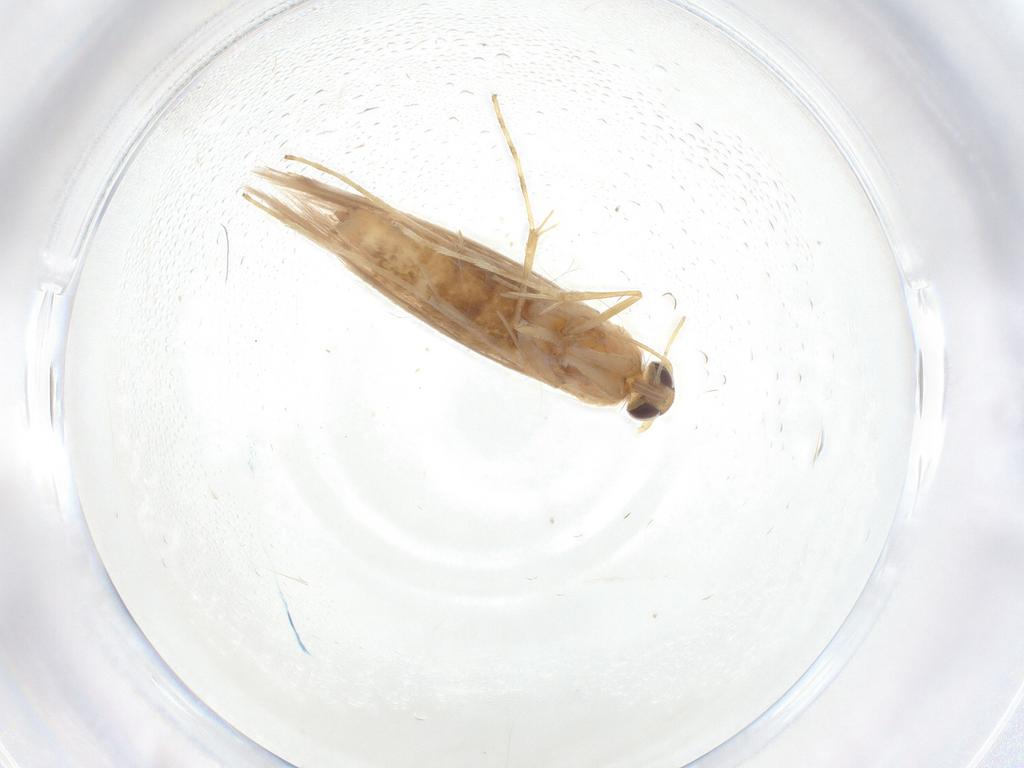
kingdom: Animalia
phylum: Arthropoda
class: Insecta
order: Lepidoptera
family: Gracillariidae
